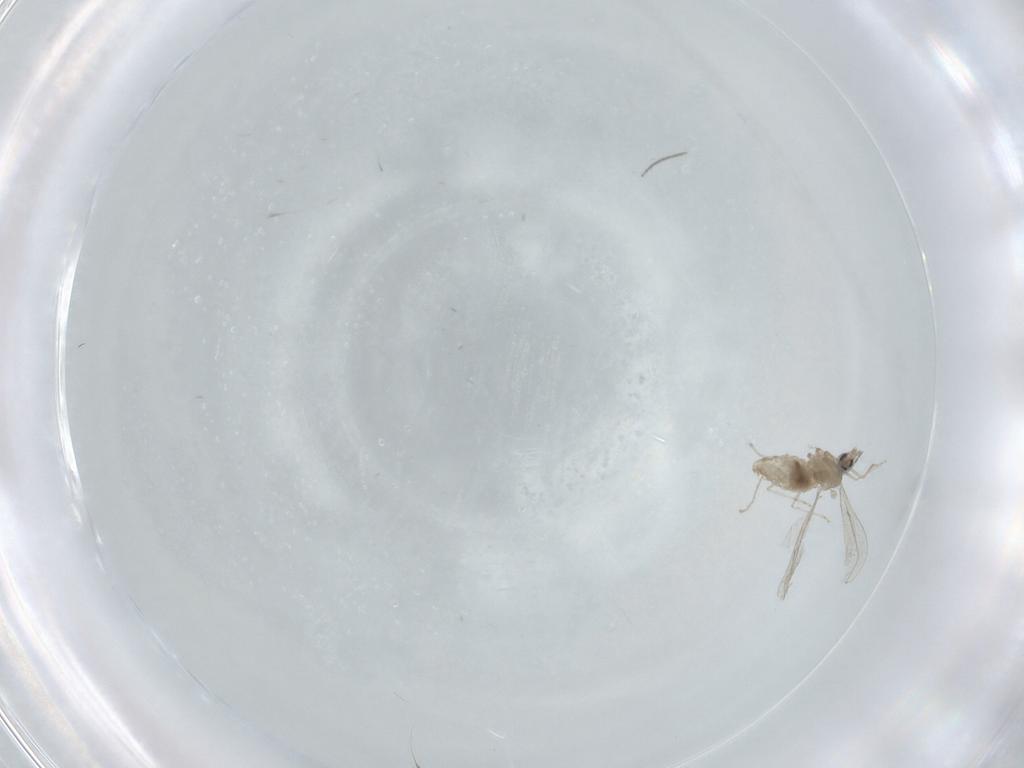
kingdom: Animalia
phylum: Arthropoda
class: Insecta
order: Diptera
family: Cecidomyiidae
